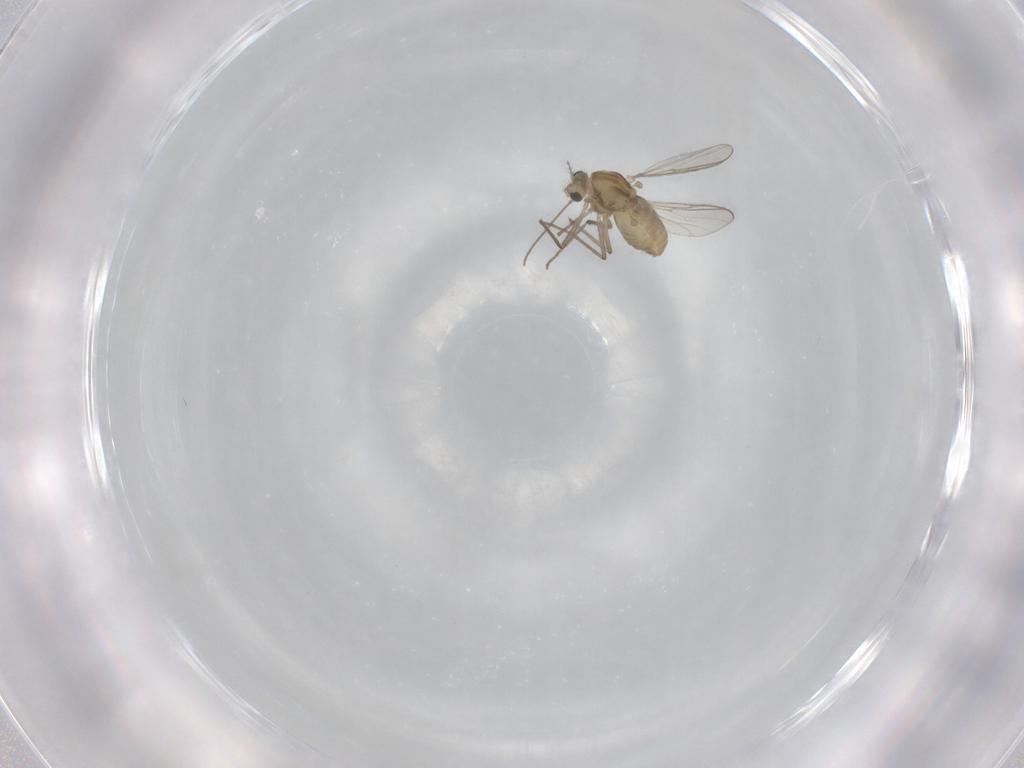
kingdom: Animalia
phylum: Arthropoda
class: Insecta
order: Diptera
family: Chironomidae
